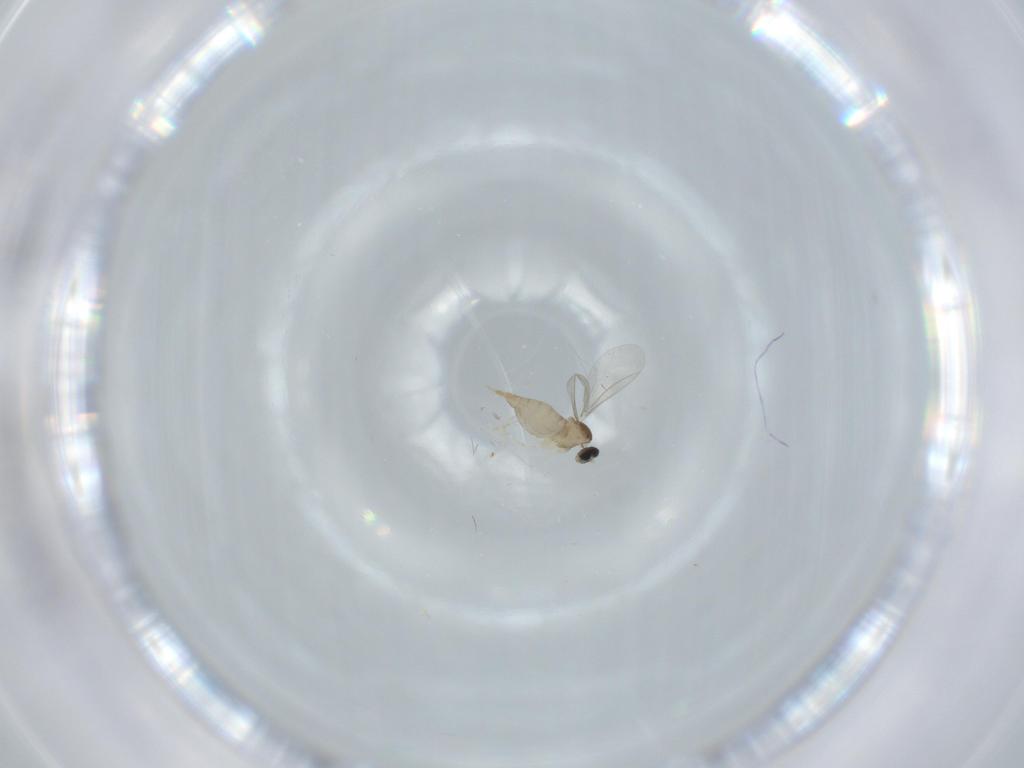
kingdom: Animalia
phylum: Arthropoda
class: Insecta
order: Diptera
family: Cecidomyiidae
